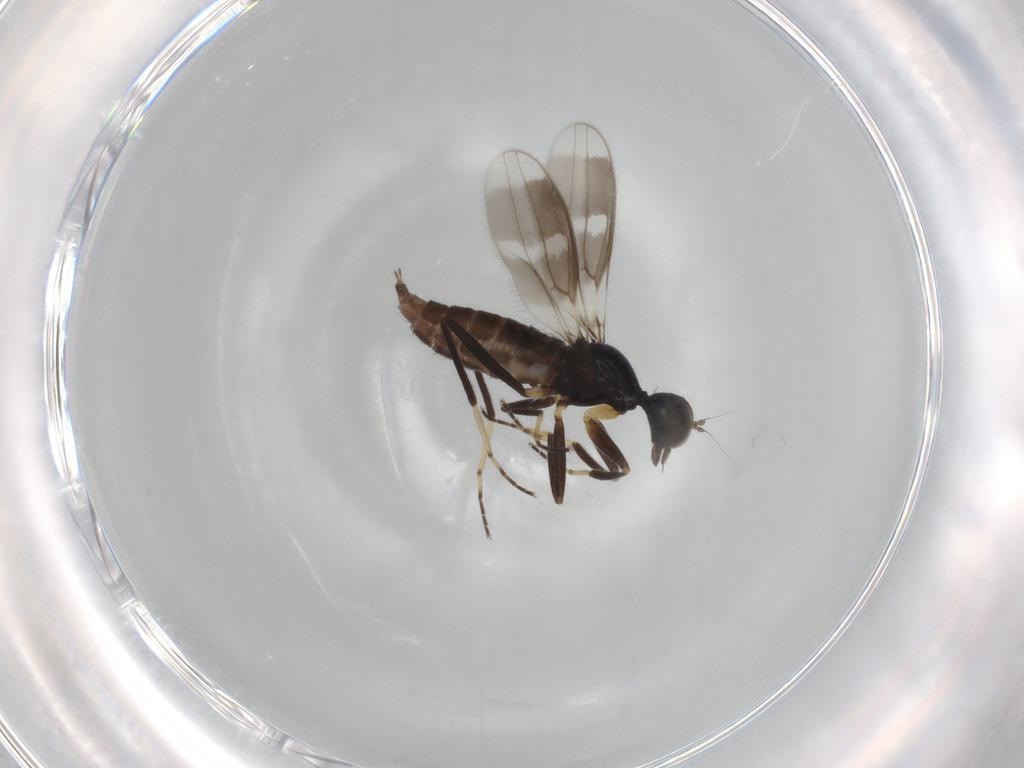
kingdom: Animalia
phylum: Arthropoda
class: Insecta
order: Diptera
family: Hybotidae
